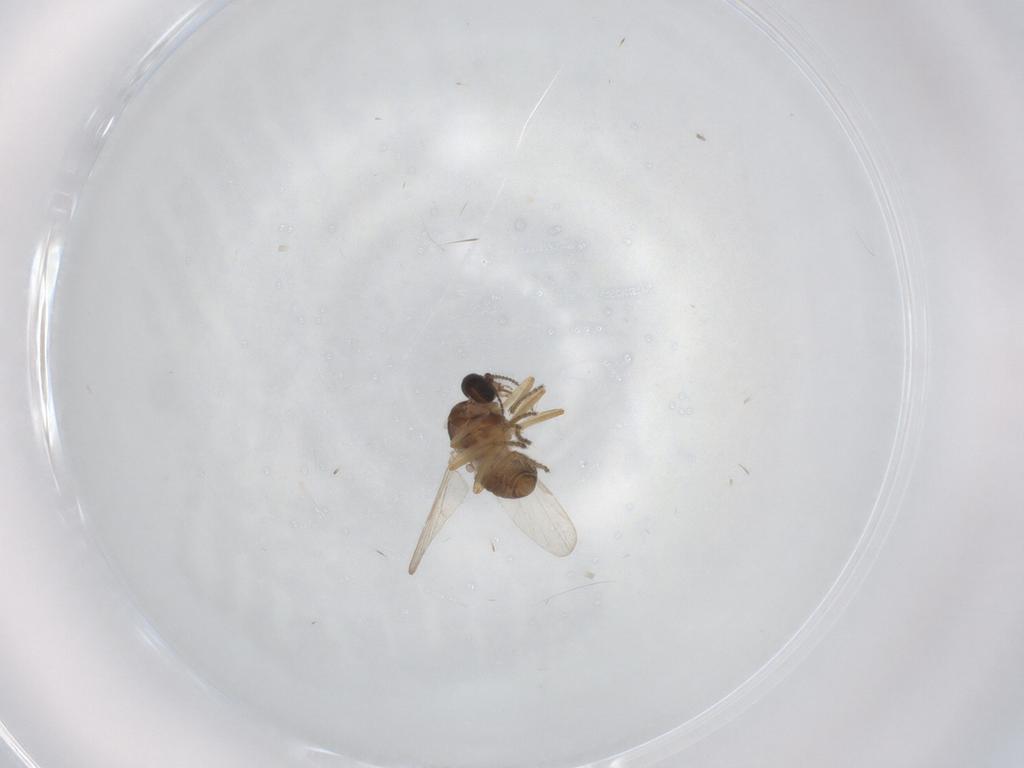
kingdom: Animalia
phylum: Arthropoda
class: Insecta
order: Diptera
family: Ceratopogonidae
